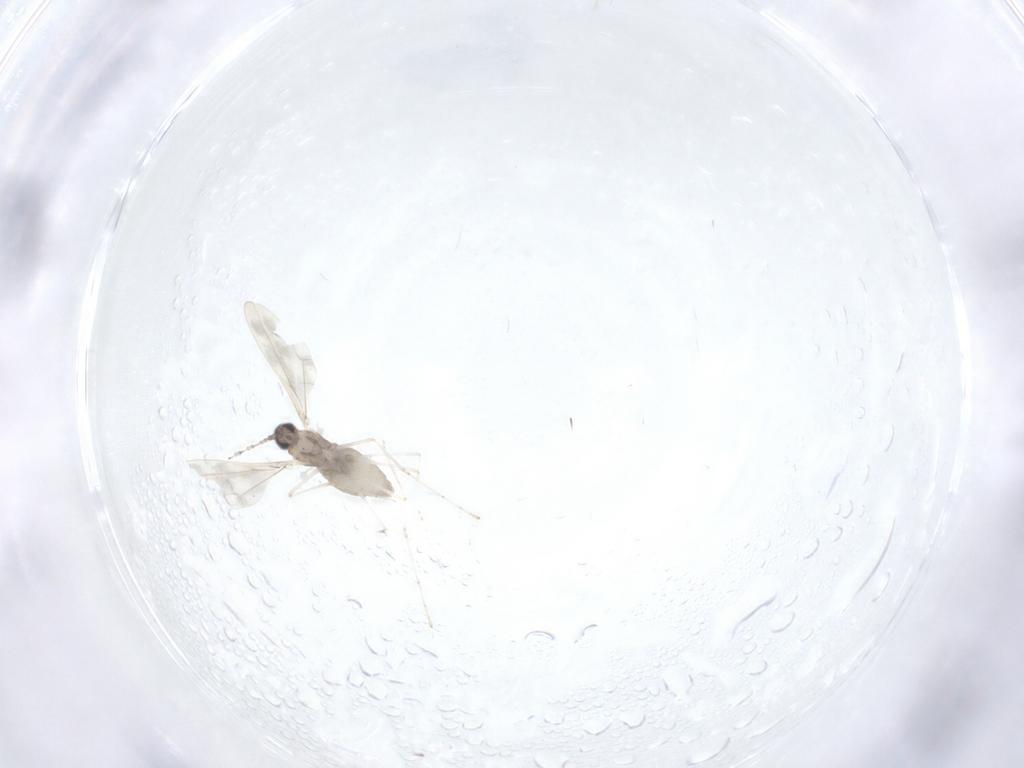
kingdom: Animalia
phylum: Arthropoda
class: Insecta
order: Diptera
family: Cecidomyiidae
